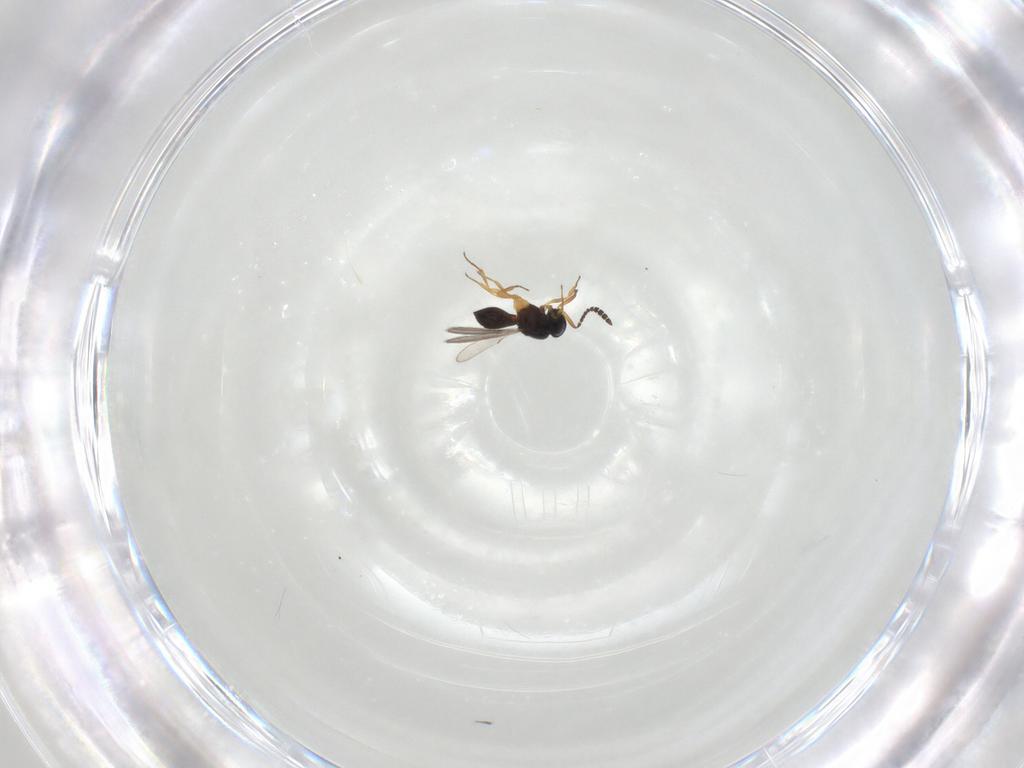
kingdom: Animalia
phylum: Arthropoda
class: Insecta
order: Hymenoptera
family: Scelionidae
